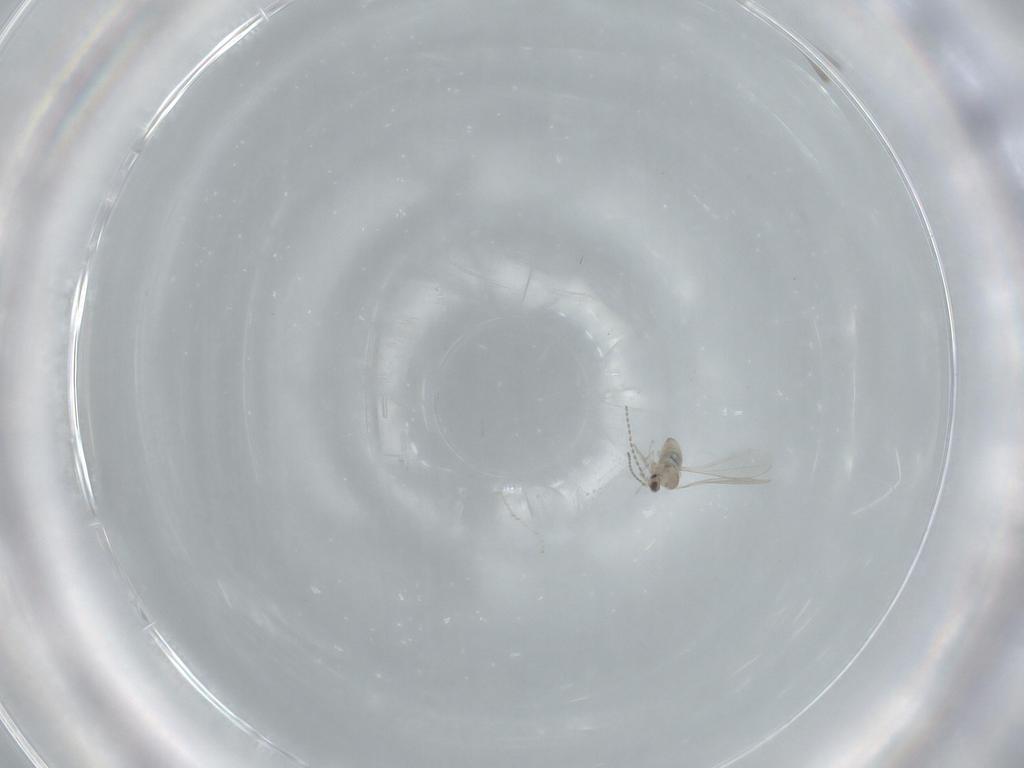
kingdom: Animalia
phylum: Arthropoda
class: Insecta
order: Diptera
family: Cecidomyiidae
